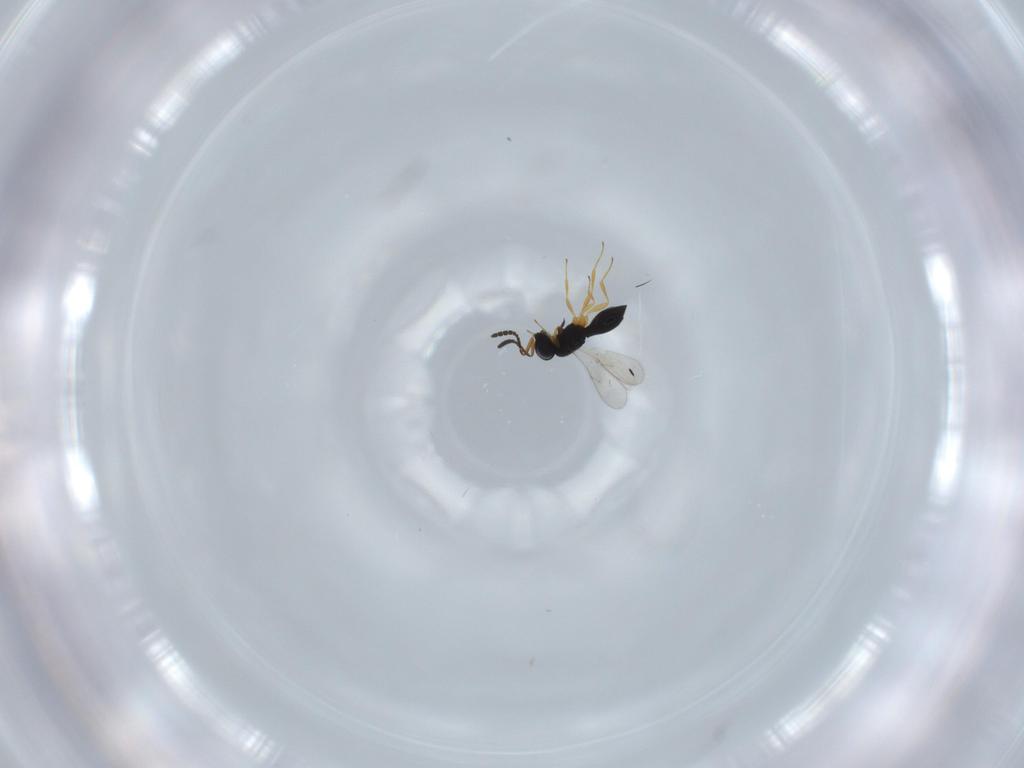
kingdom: Animalia
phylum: Arthropoda
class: Insecta
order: Hymenoptera
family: Scelionidae
